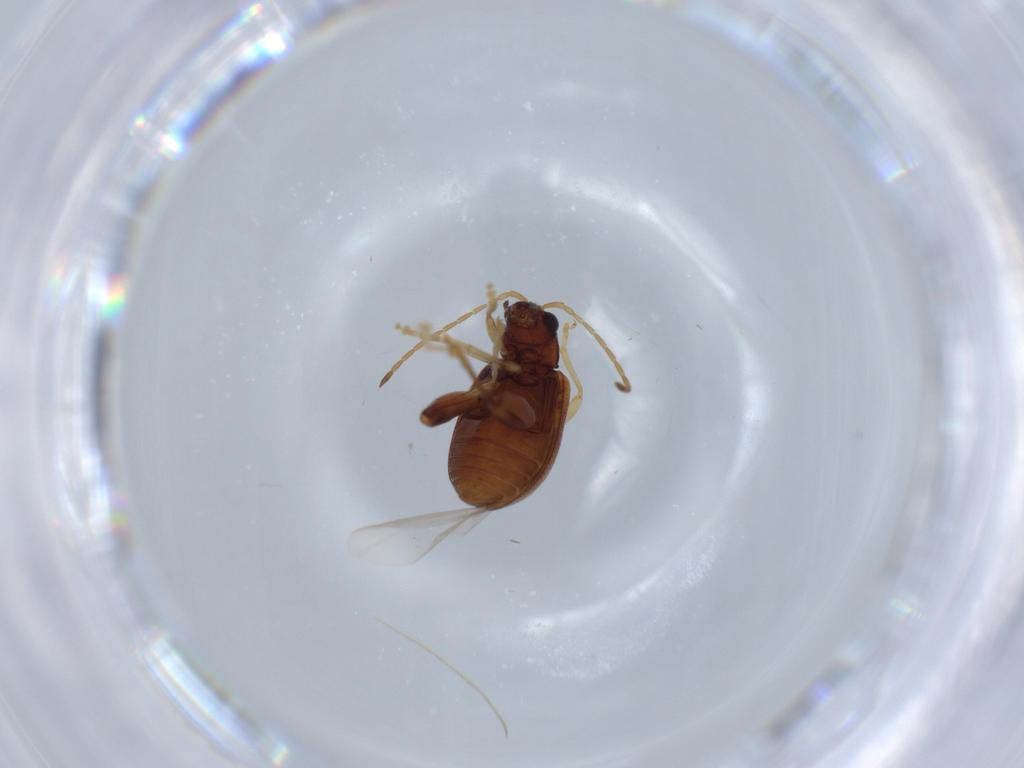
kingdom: Animalia
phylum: Arthropoda
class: Insecta
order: Coleoptera
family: Chrysomelidae
